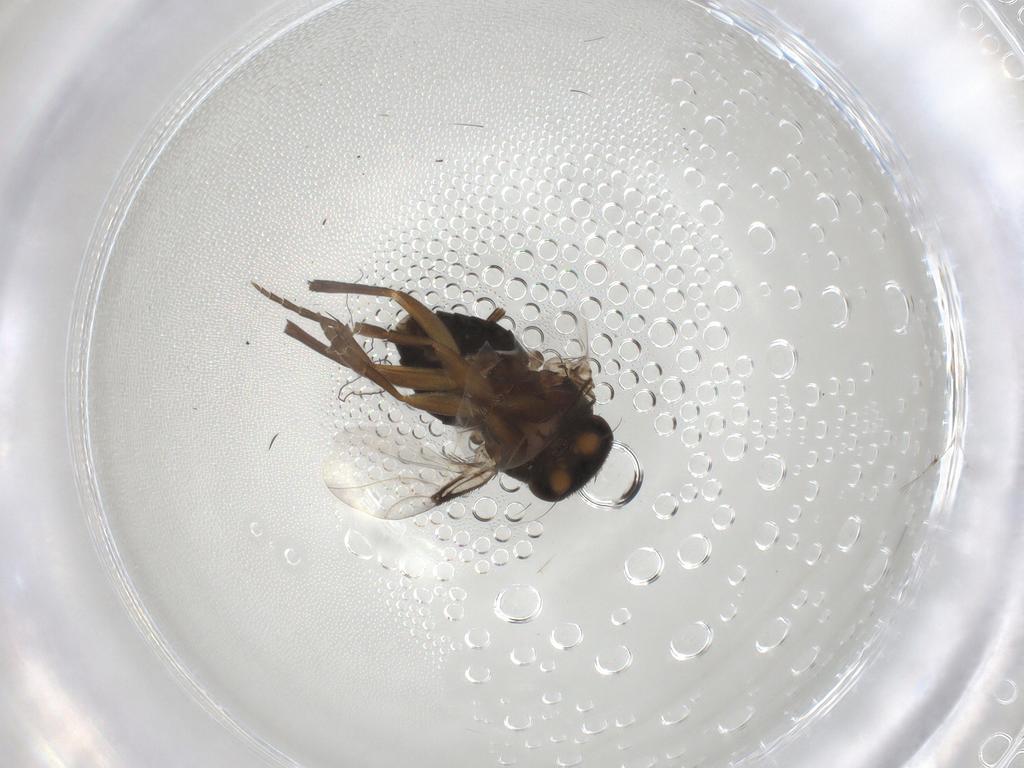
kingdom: Animalia
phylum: Arthropoda
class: Insecta
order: Diptera
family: Phoridae
